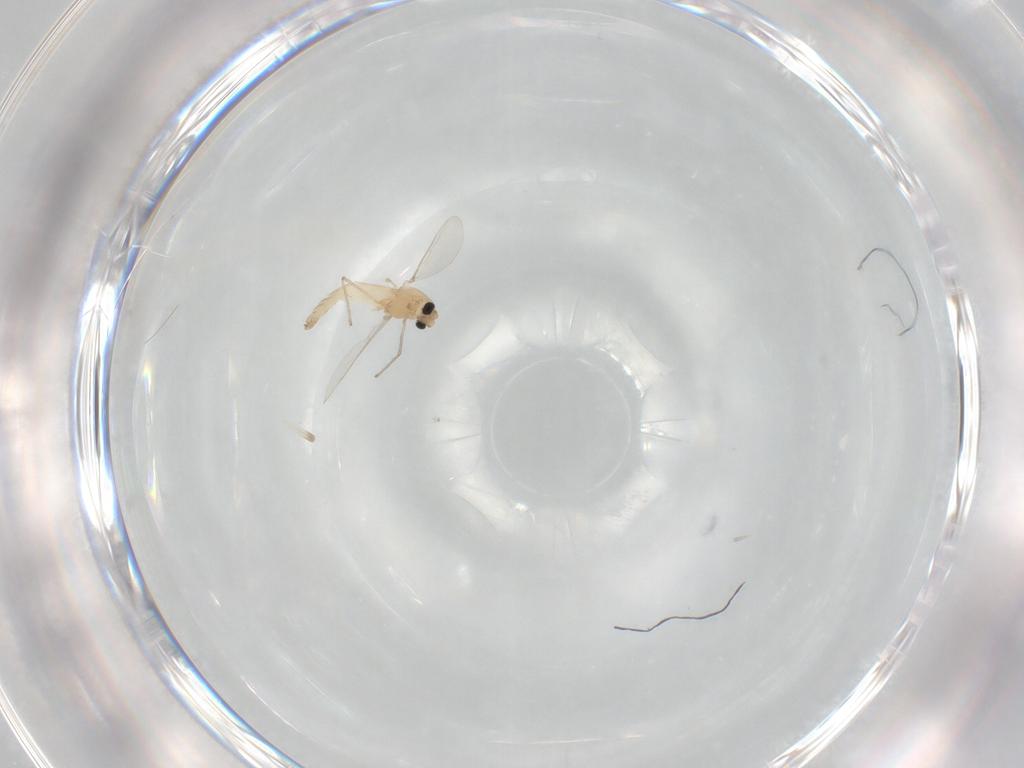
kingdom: Animalia
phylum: Arthropoda
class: Insecta
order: Diptera
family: Chironomidae
